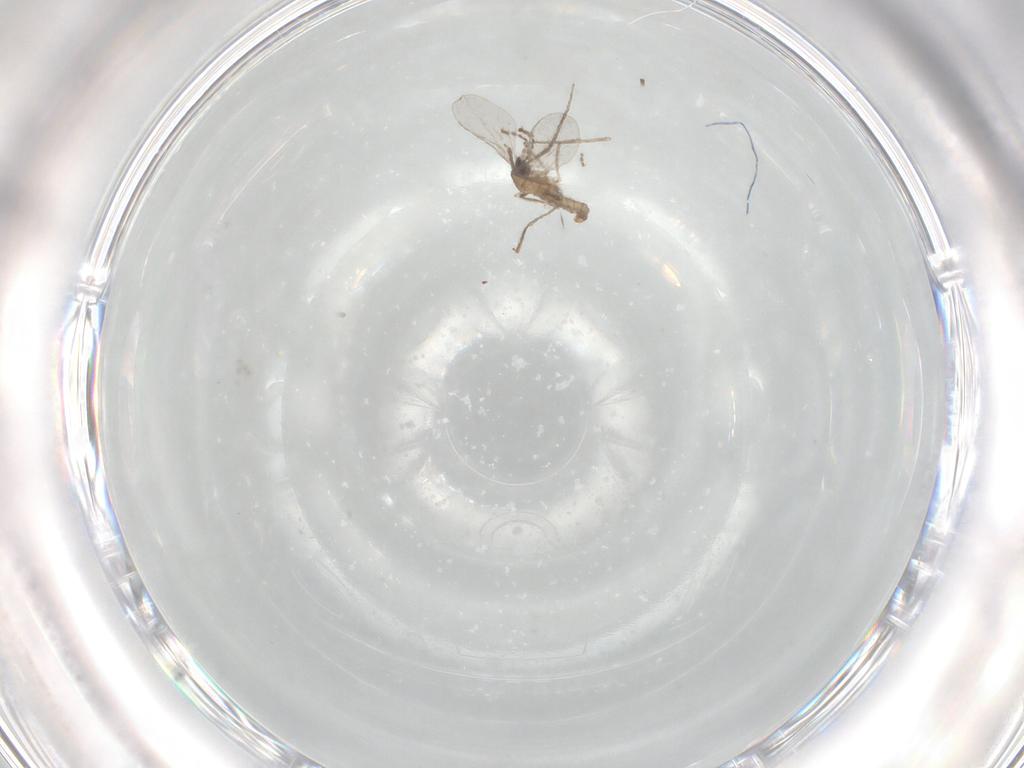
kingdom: Animalia
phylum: Arthropoda
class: Insecta
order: Diptera
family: Cecidomyiidae
